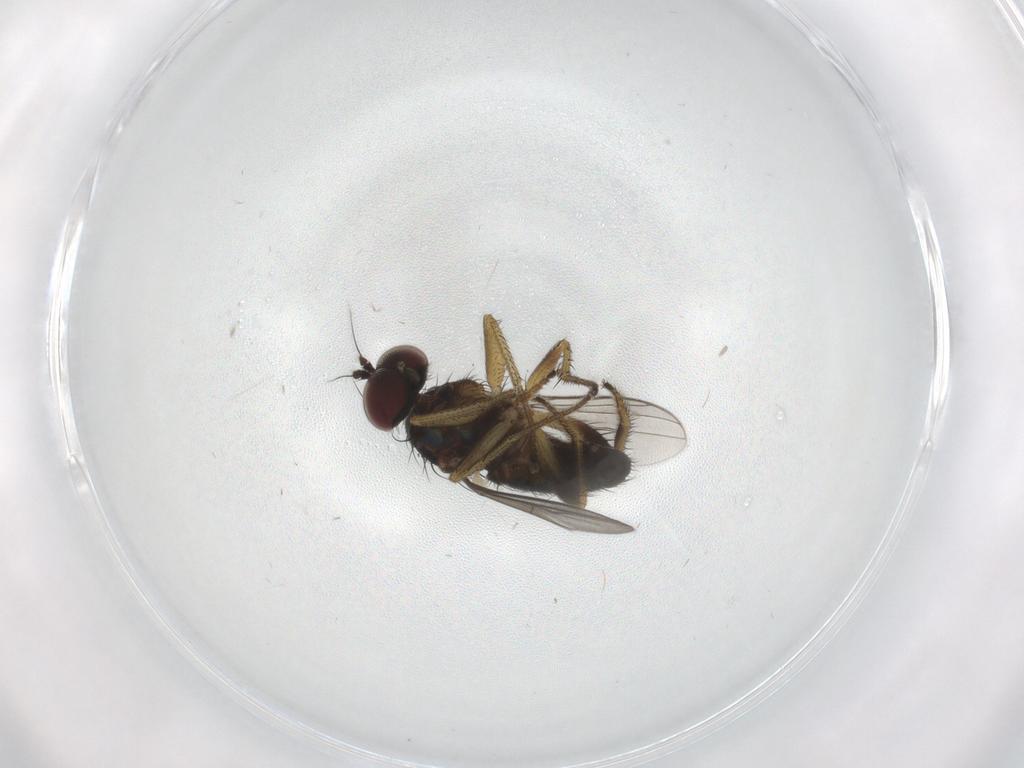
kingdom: Animalia
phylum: Arthropoda
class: Insecta
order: Diptera
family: Dolichopodidae
